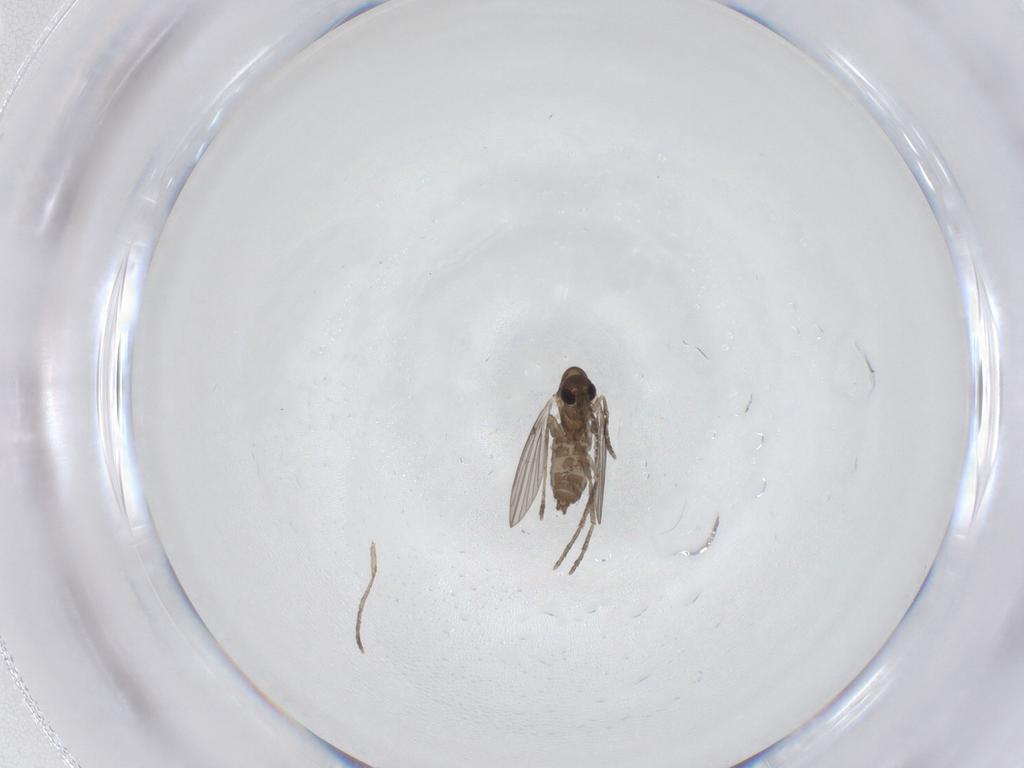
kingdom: Animalia
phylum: Arthropoda
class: Insecta
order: Diptera
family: Psychodidae
